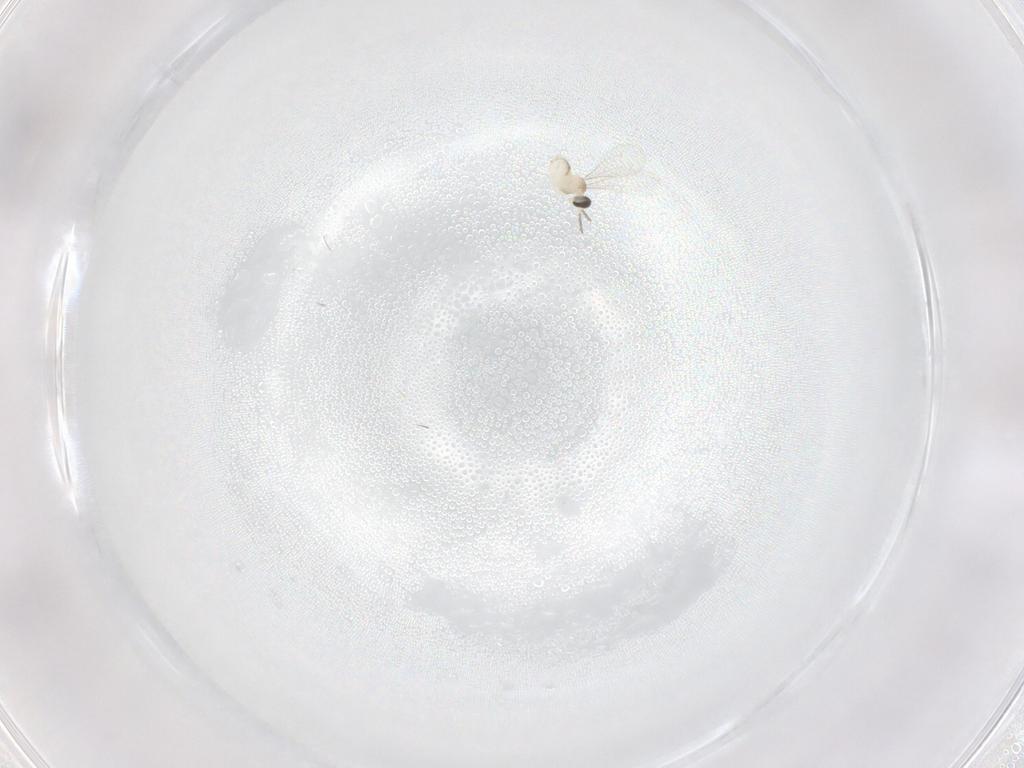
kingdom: Animalia
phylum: Arthropoda
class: Insecta
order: Diptera
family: Cecidomyiidae
